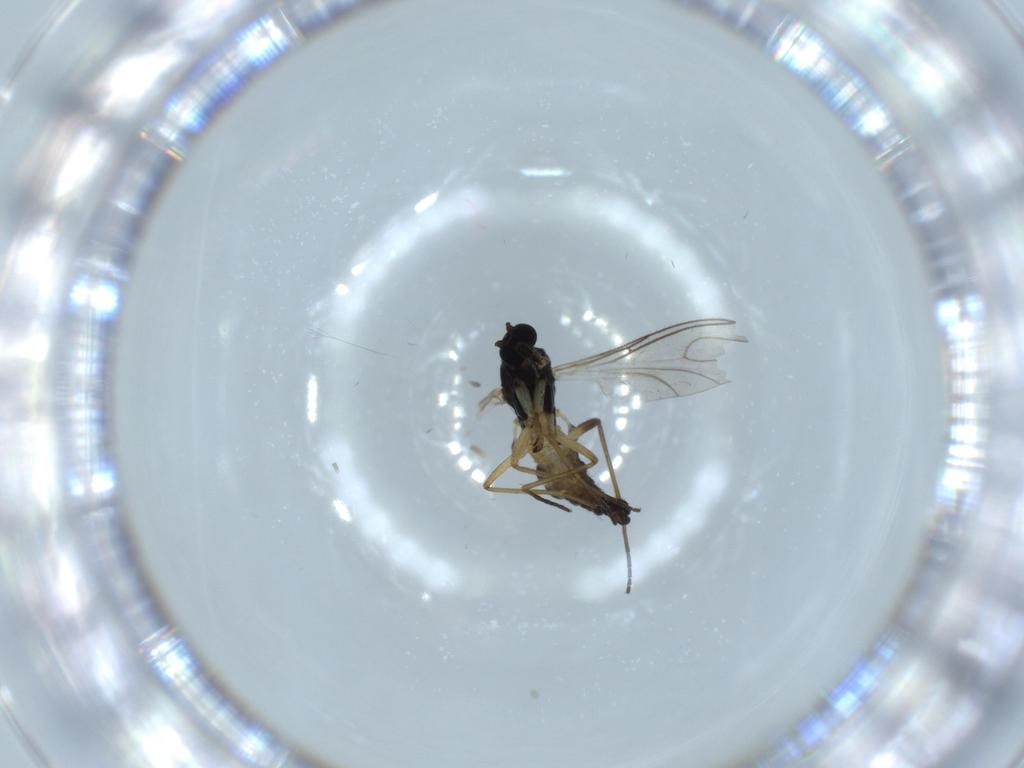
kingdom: Animalia
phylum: Arthropoda
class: Insecta
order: Diptera
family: Sciaridae
